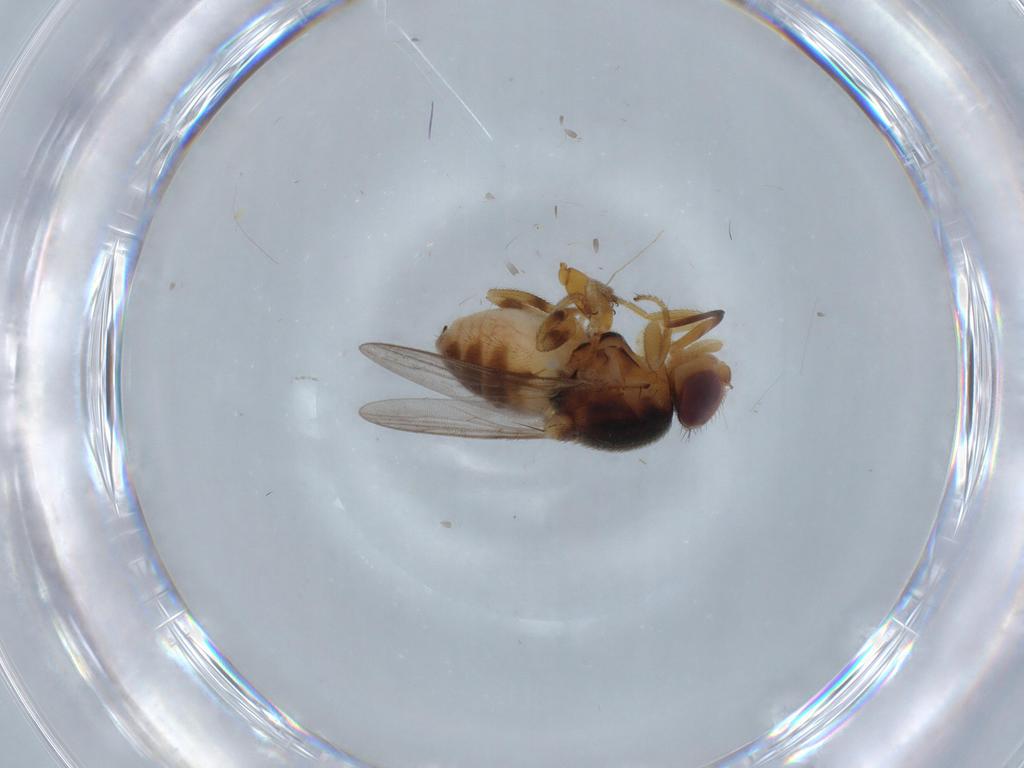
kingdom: Animalia
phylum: Arthropoda
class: Insecta
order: Diptera
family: Chloropidae
